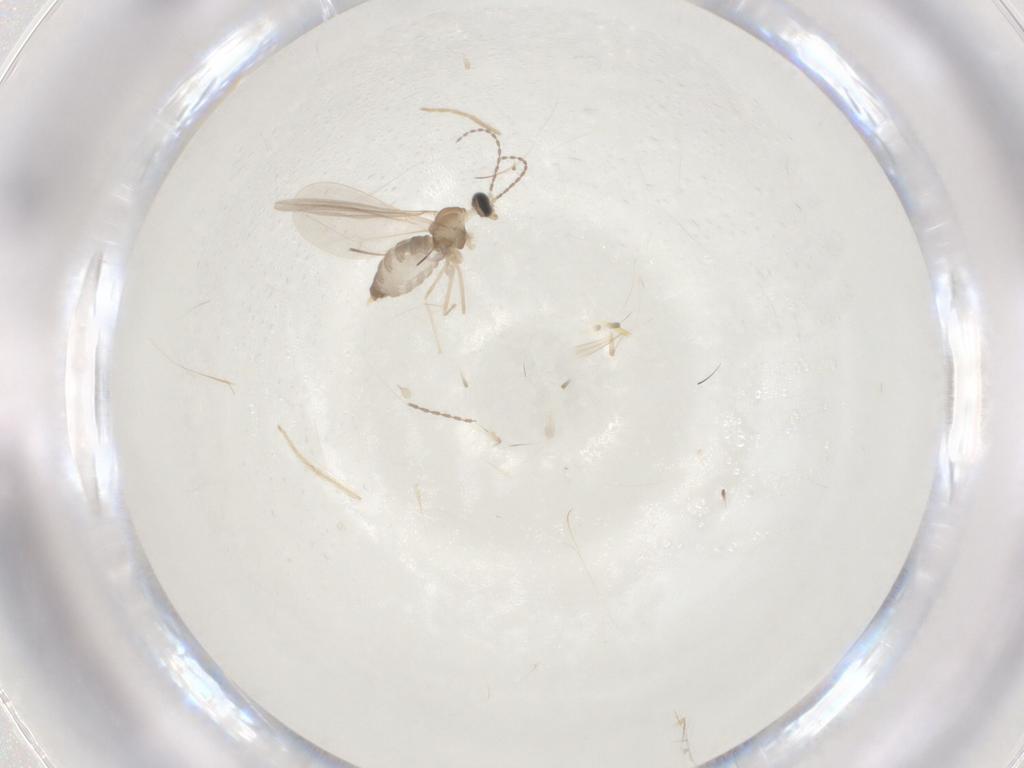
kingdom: Animalia
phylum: Arthropoda
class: Insecta
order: Diptera
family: Cecidomyiidae
